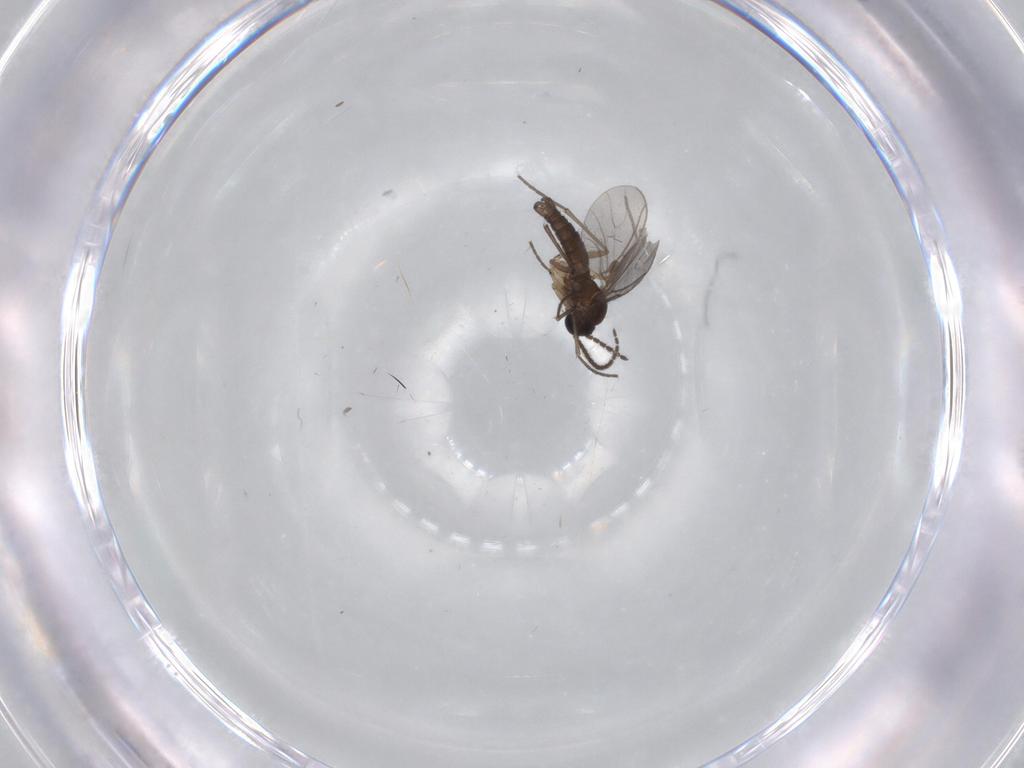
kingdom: Animalia
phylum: Arthropoda
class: Insecta
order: Diptera
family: Sciaridae
